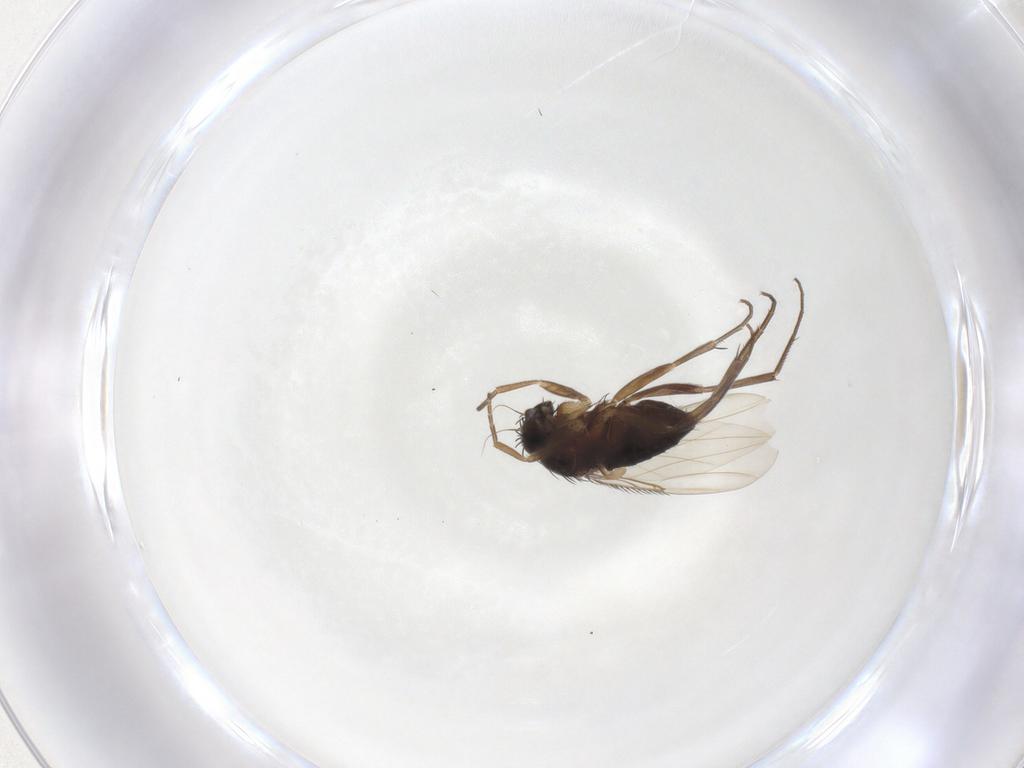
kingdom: Animalia
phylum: Arthropoda
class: Insecta
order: Diptera
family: Phoridae
